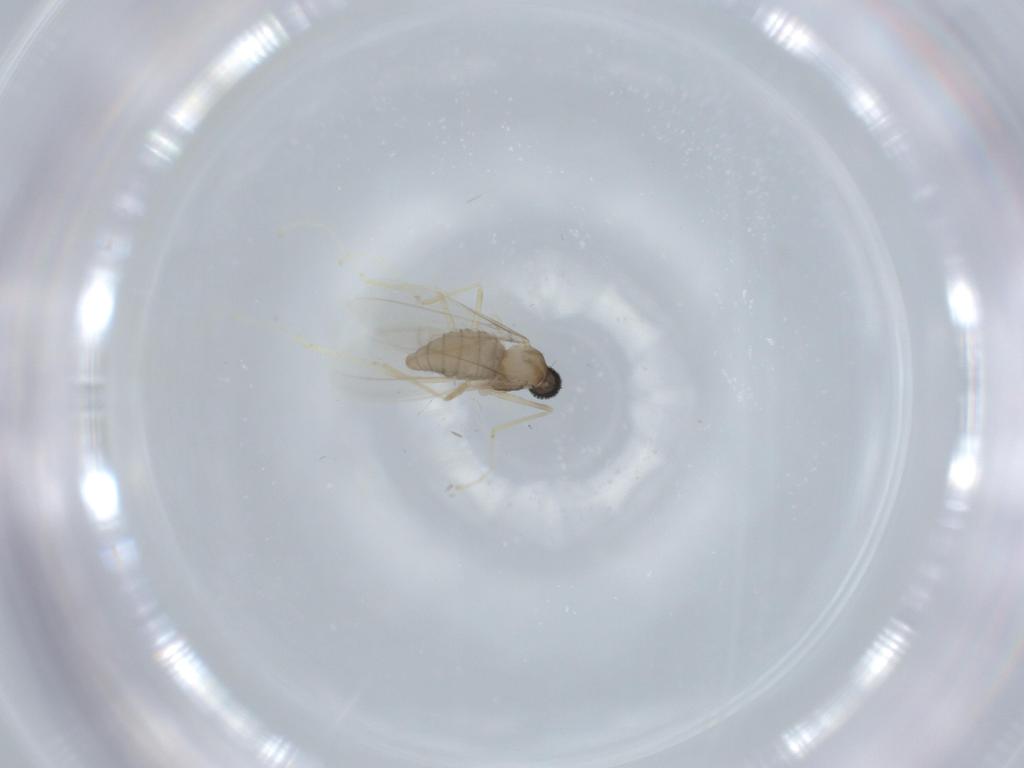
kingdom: Animalia
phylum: Arthropoda
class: Insecta
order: Diptera
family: Cecidomyiidae
